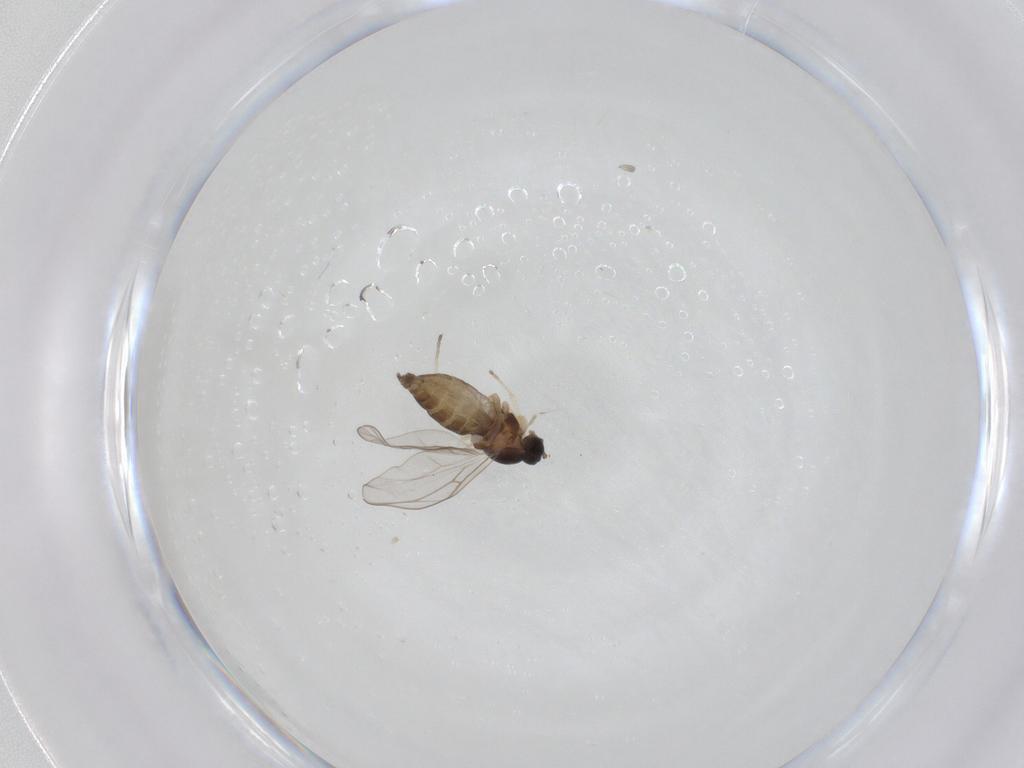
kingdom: Animalia
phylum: Arthropoda
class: Insecta
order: Diptera
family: Cecidomyiidae
